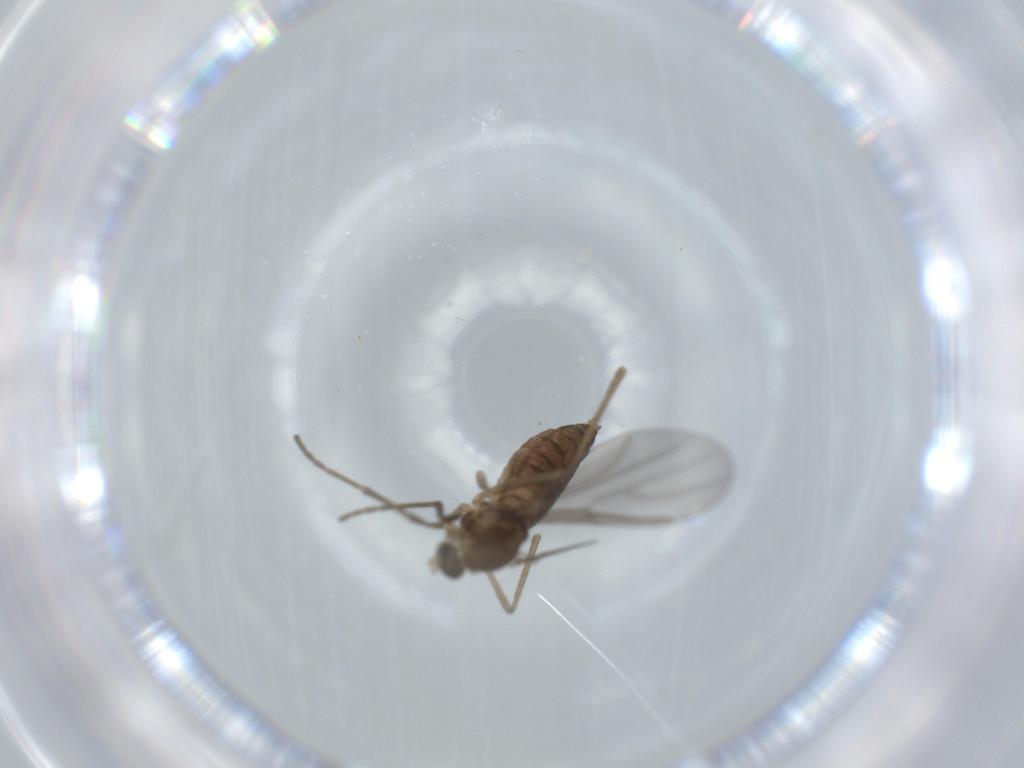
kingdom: Animalia
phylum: Arthropoda
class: Insecta
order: Diptera
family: Cecidomyiidae
